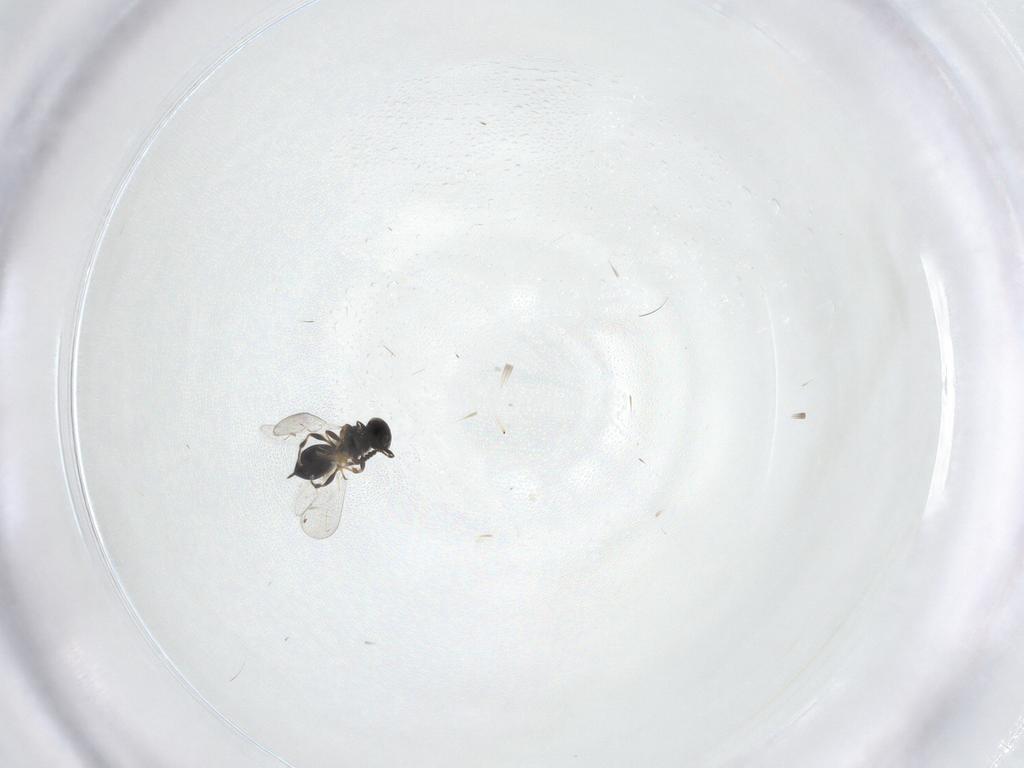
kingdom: Animalia
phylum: Arthropoda
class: Insecta
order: Hymenoptera
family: Platygastridae
